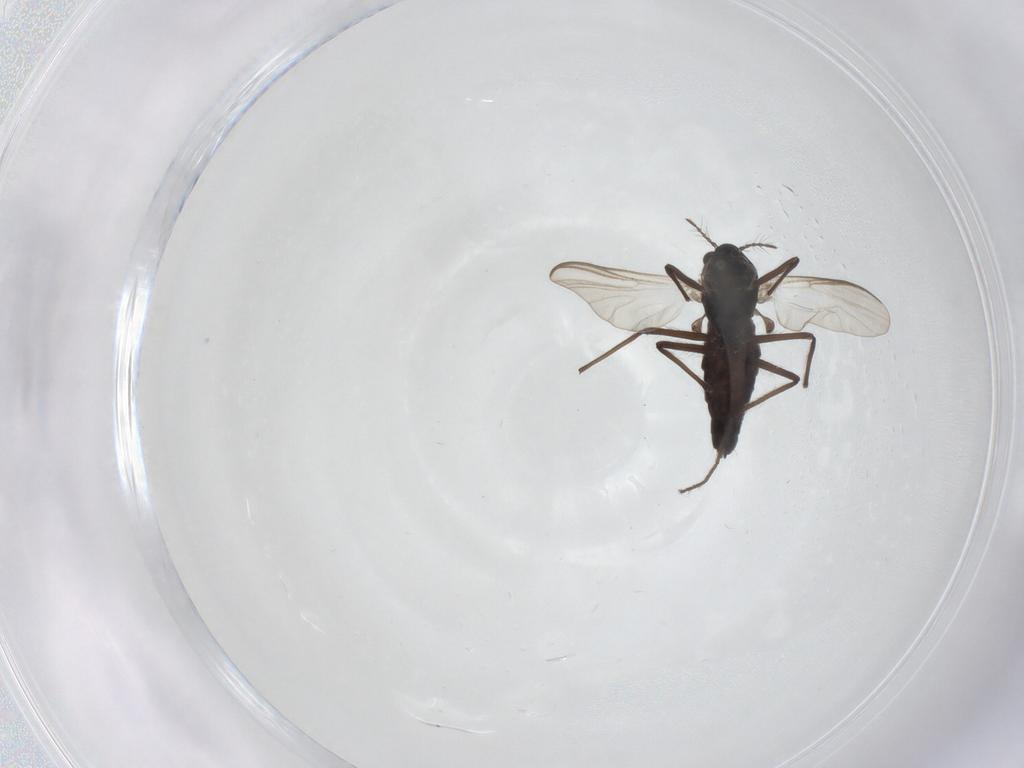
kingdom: Animalia
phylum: Arthropoda
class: Insecta
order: Diptera
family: Chironomidae
